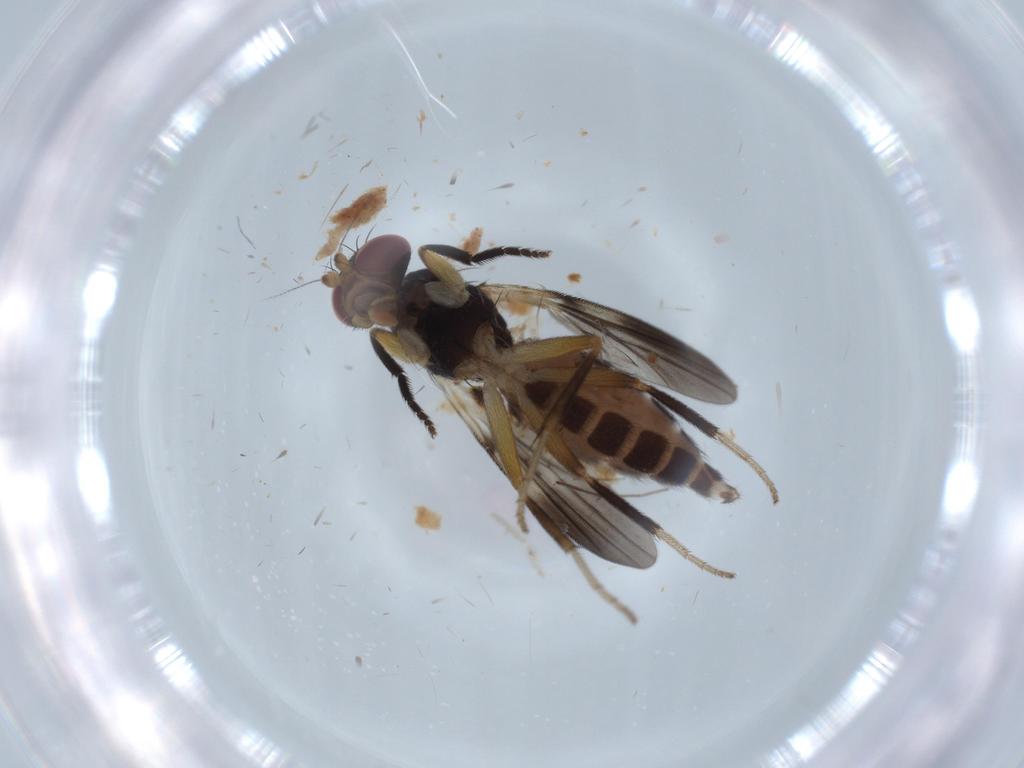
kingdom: Animalia
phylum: Arthropoda
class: Insecta
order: Diptera
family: Clusiidae
